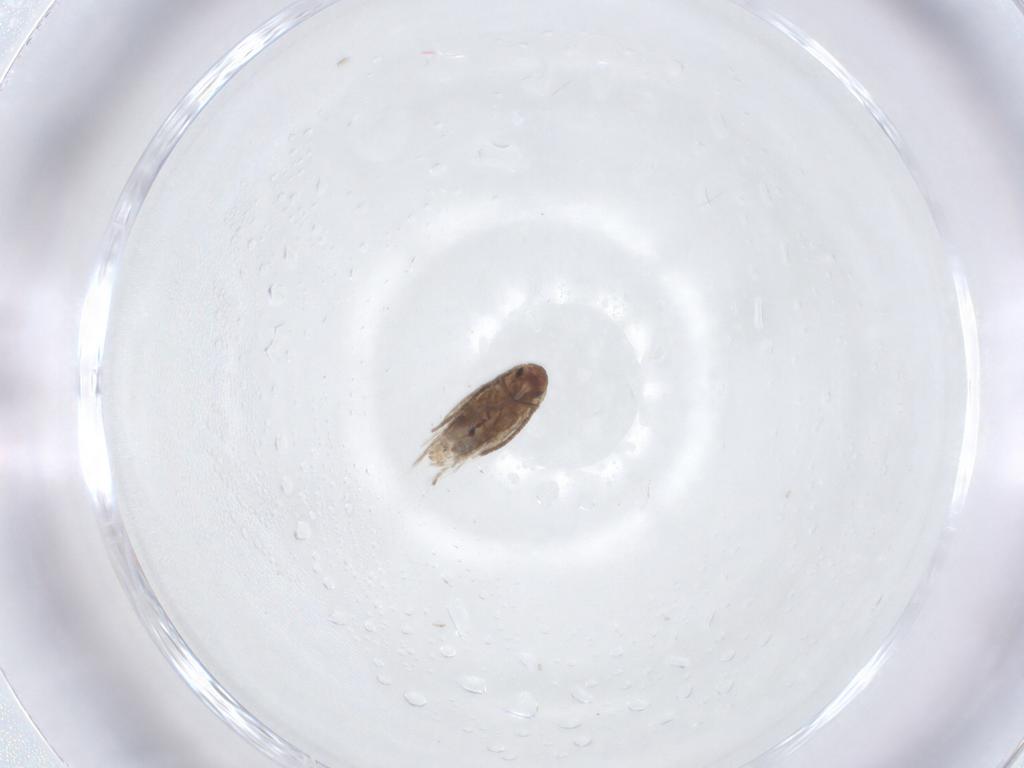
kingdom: Animalia
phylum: Arthropoda
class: Insecta
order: Lepidoptera
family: Lyonetiidae
